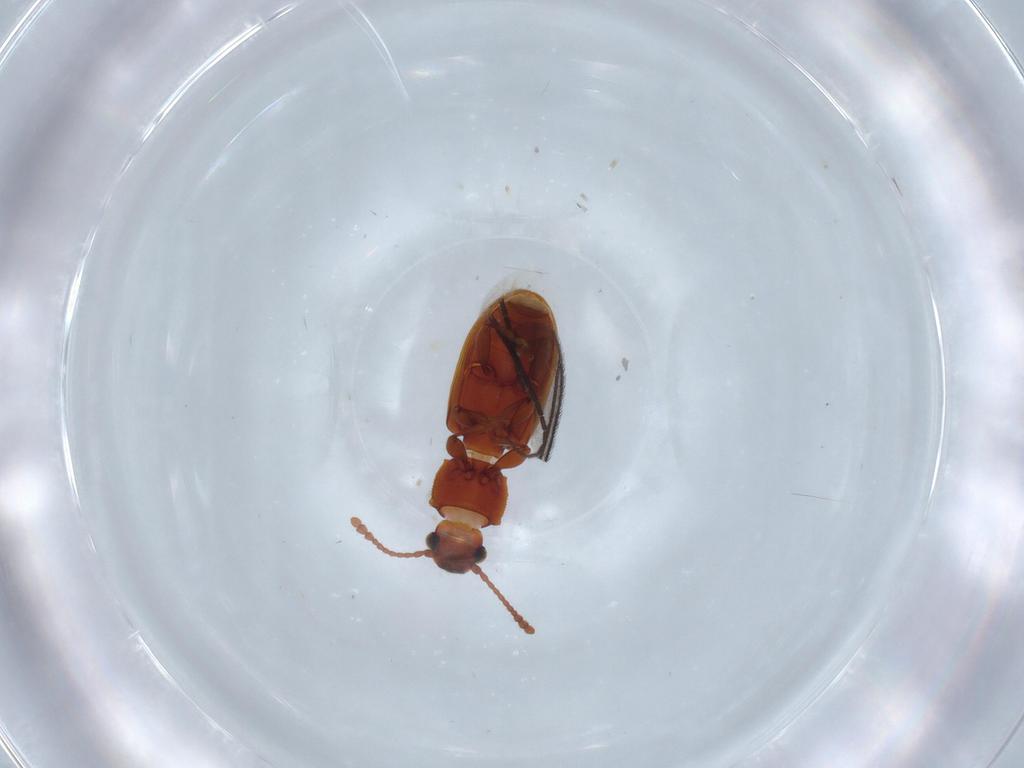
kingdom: Animalia
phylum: Arthropoda
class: Insecta
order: Coleoptera
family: Silvanidae
